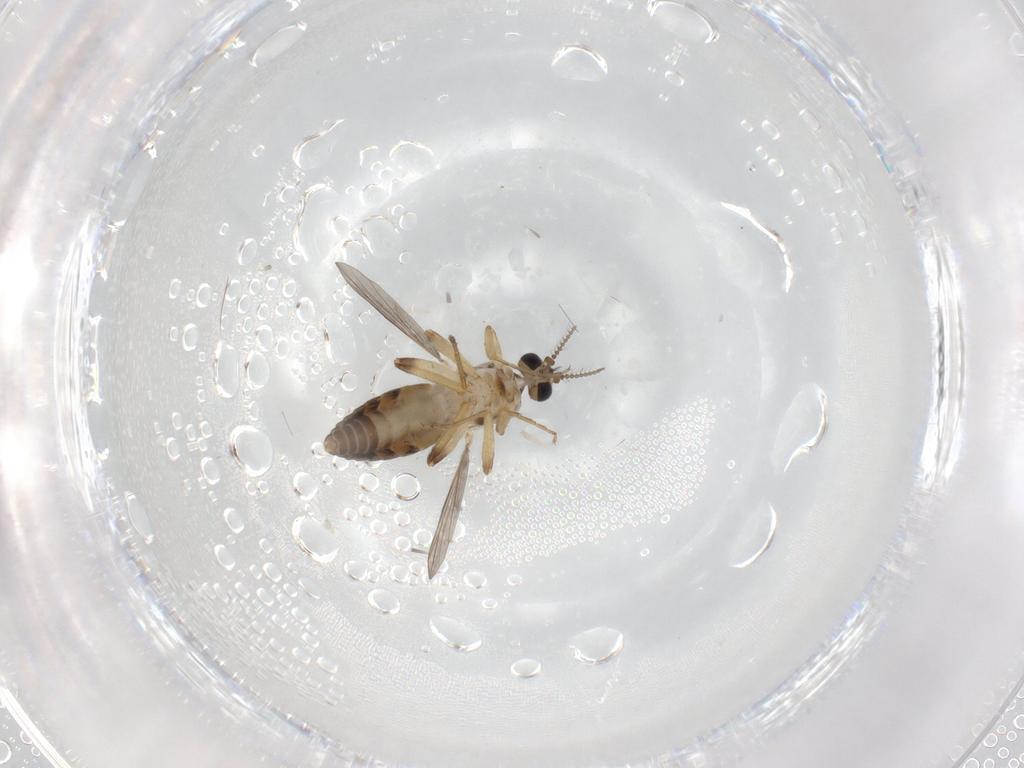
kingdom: Animalia
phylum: Arthropoda
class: Insecta
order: Diptera
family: Ceratopogonidae
